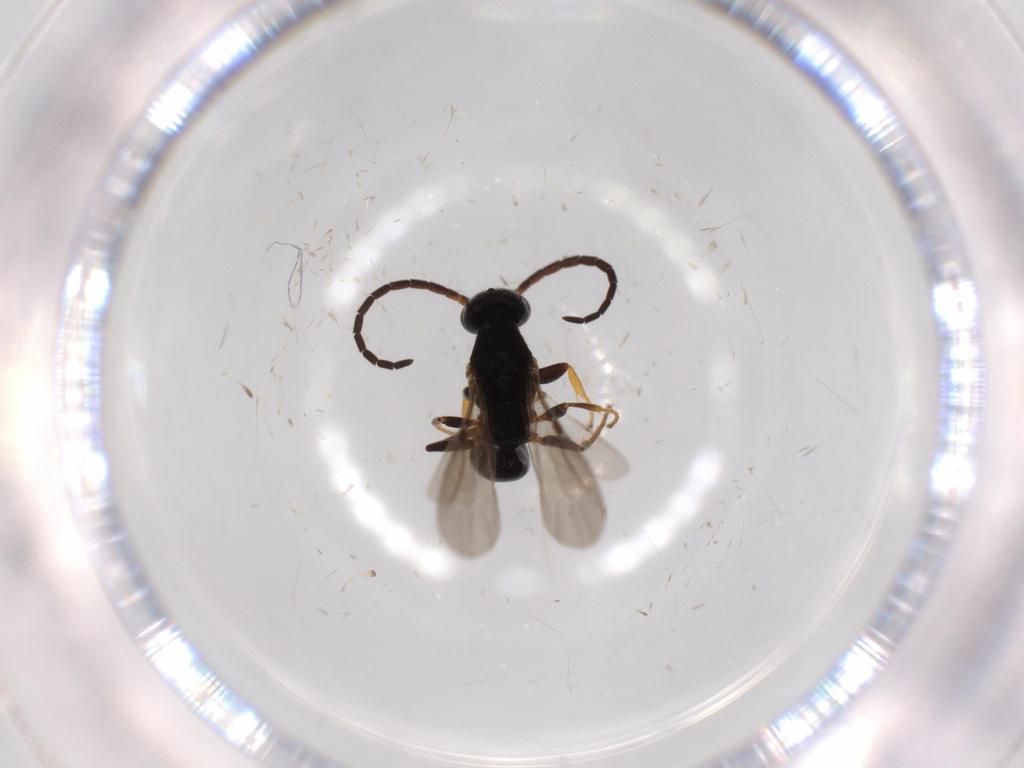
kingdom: Animalia
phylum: Arthropoda
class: Insecta
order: Hymenoptera
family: Bethylidae
